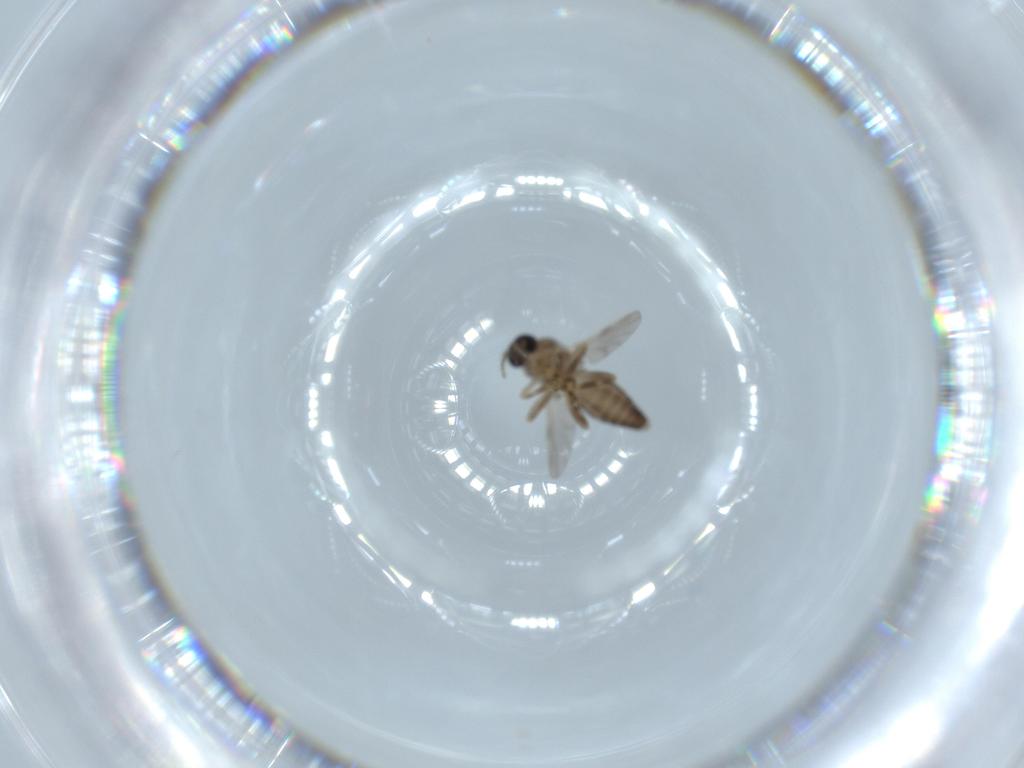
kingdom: Animalia
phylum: Arthropoda
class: Insecta
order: Diptera
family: Ceratopogonidae
